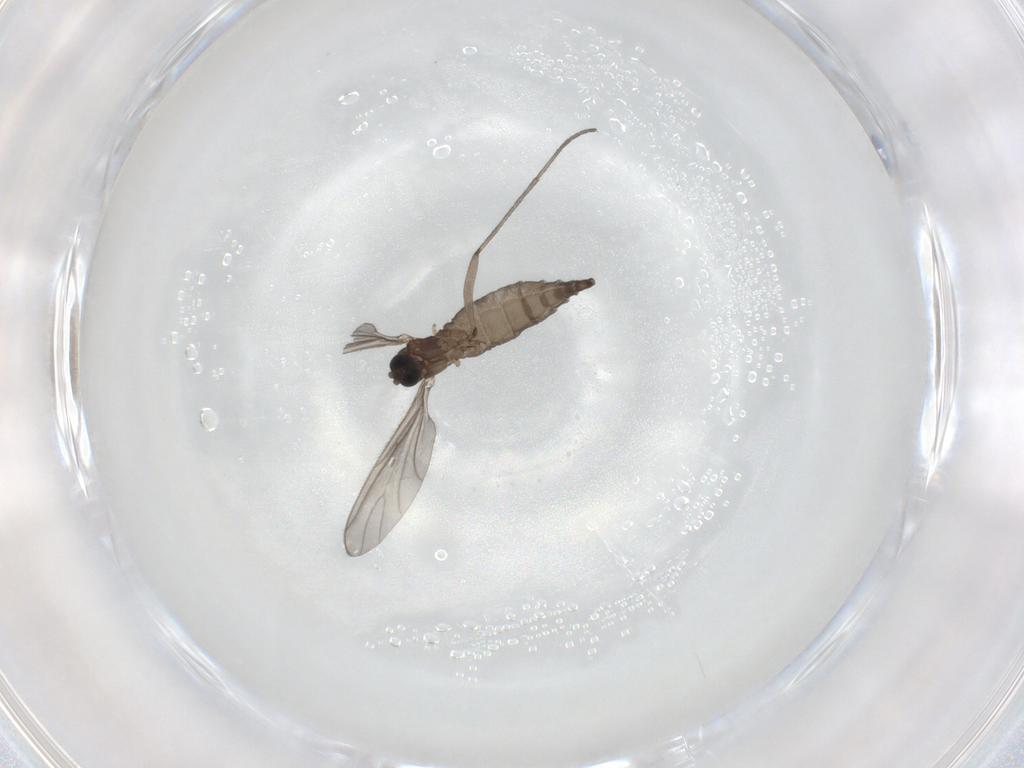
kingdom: Animalia
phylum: Arthropoda
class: Insecta
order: Diptera
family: Sciaridae
